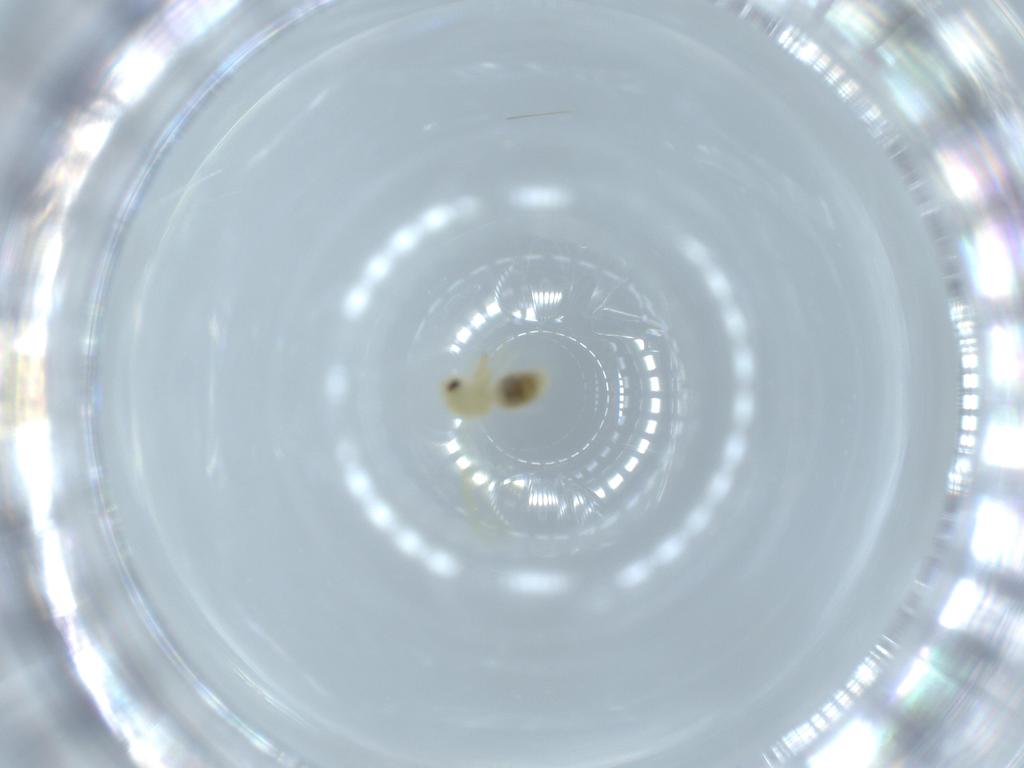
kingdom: Animalia
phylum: Arthropoda
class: Insecta
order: Hemiptera
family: Aleyrodidae
